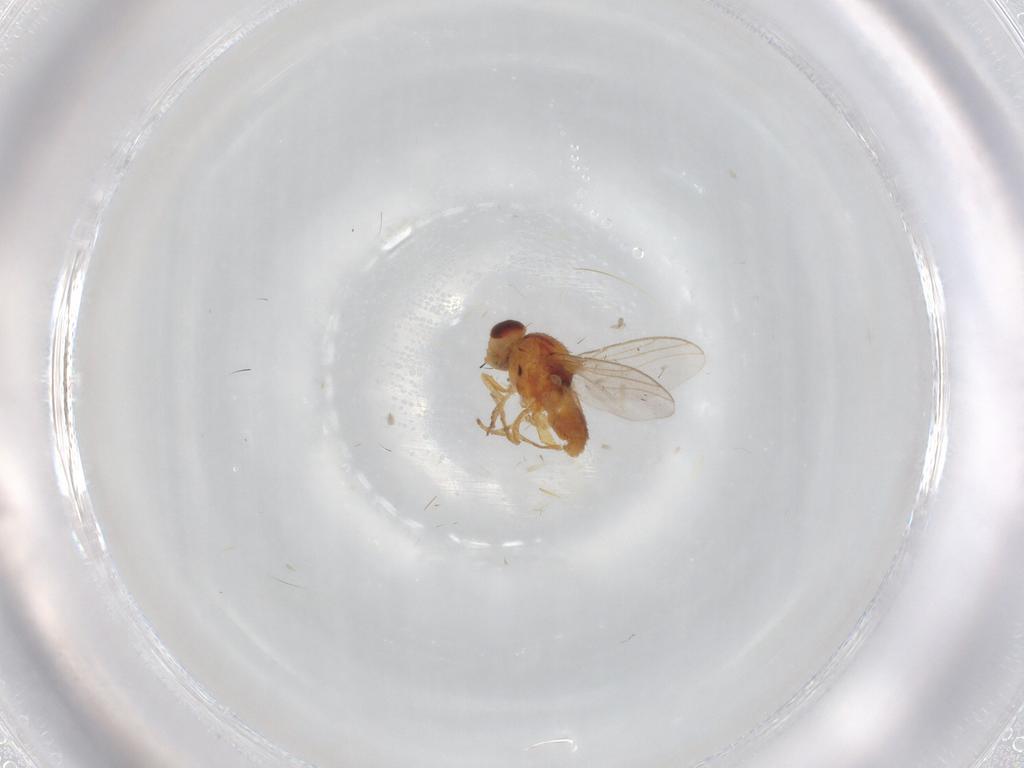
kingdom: Animalia
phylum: Arthropoda
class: Insecta
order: Diptera
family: Chloropidae
